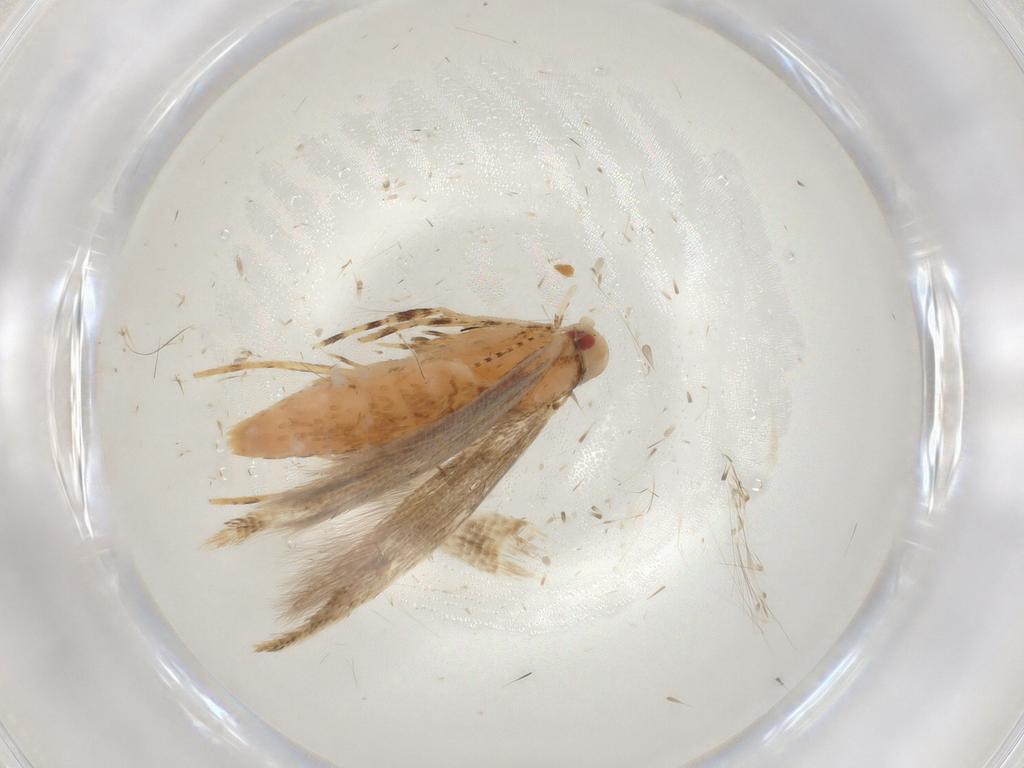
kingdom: Animalia
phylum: Arthropoda
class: Insecta
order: Lepidoptera
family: Cosmopterigidae
